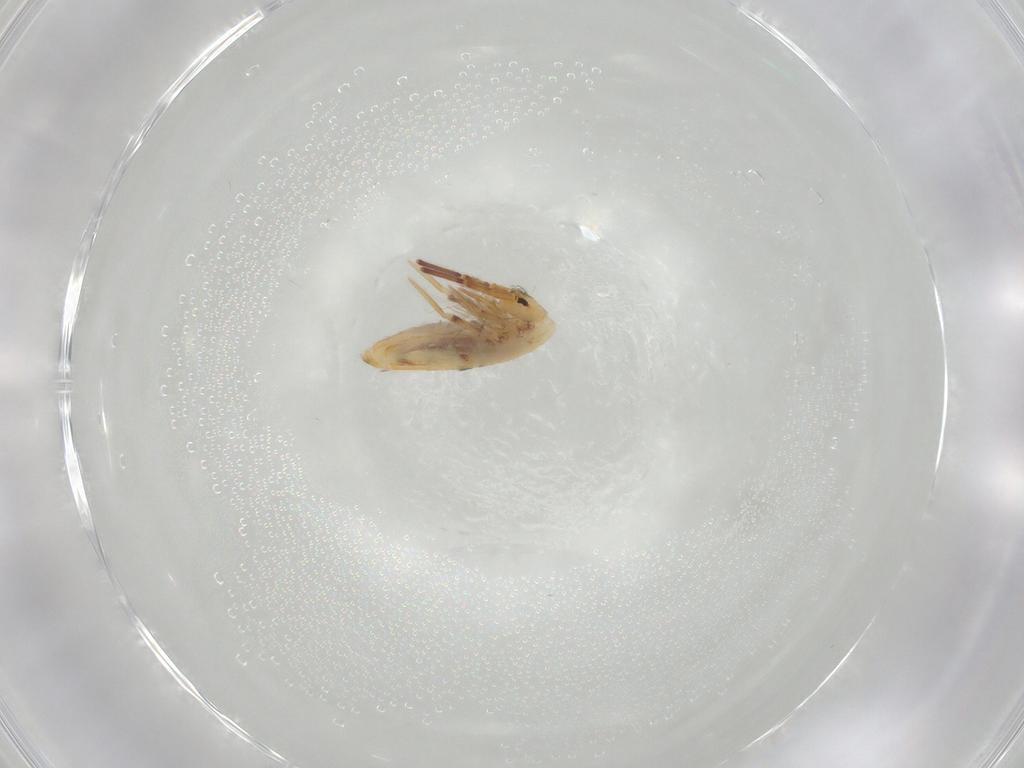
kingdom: Animalia
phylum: Arthropoda
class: Collembola
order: Poduromorpha
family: Hypogastruridae
